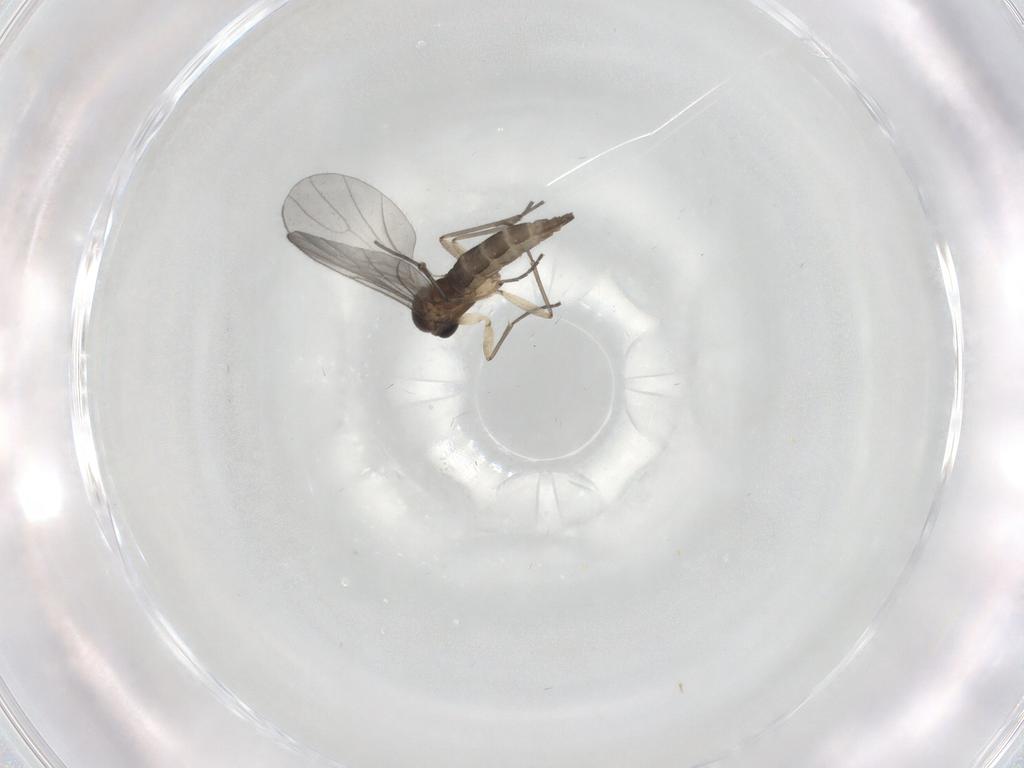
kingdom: Animalia
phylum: Arthropoda
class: Insecta
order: Diptera
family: Sciaridae
